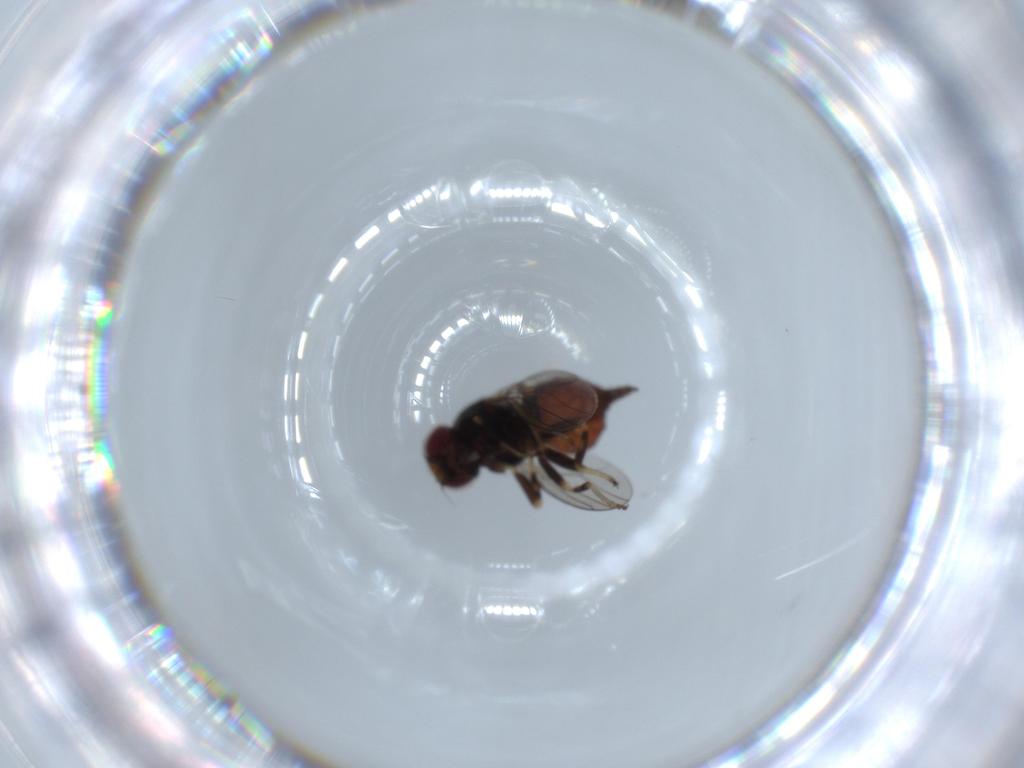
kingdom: Animalia
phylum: Arthropoda
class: Insecta
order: Diptera
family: Chloropidae
